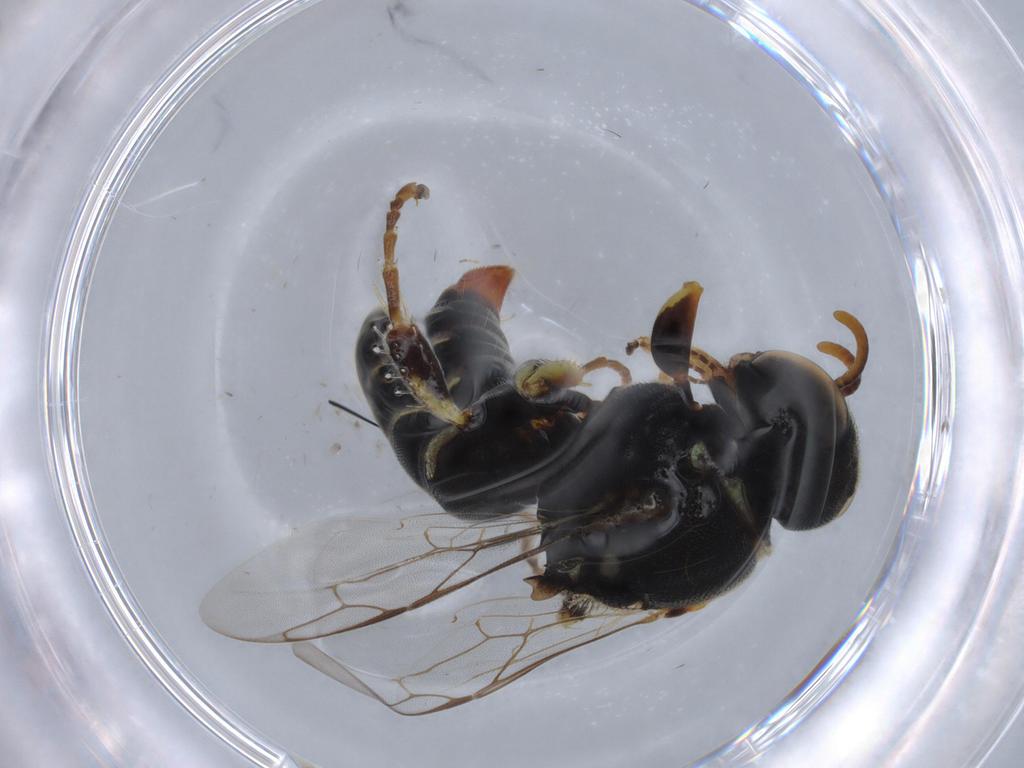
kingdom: Animalia
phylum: Arthropoda
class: Insecta
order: Hymenoptera
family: Crabronidae
